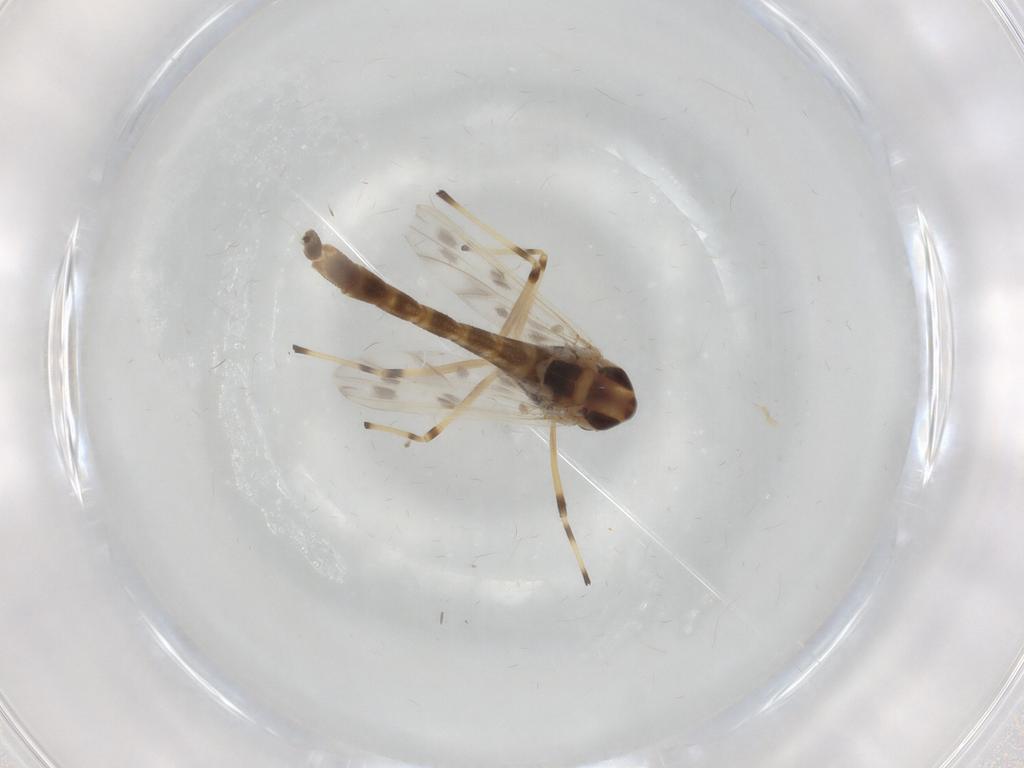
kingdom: Animalia
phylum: Arthropoda
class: Insecta
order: Diptera
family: Chironomidae
